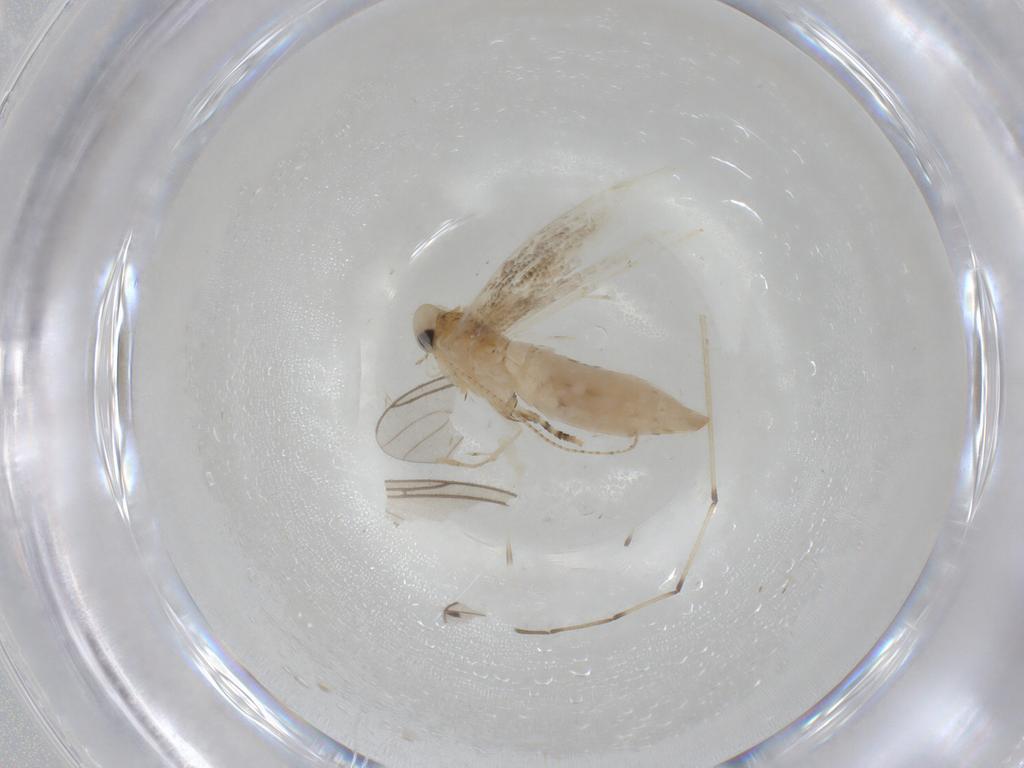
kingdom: Animalia
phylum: Arthropoda
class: Insecta
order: Lepidoptera
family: Gracillariidae
